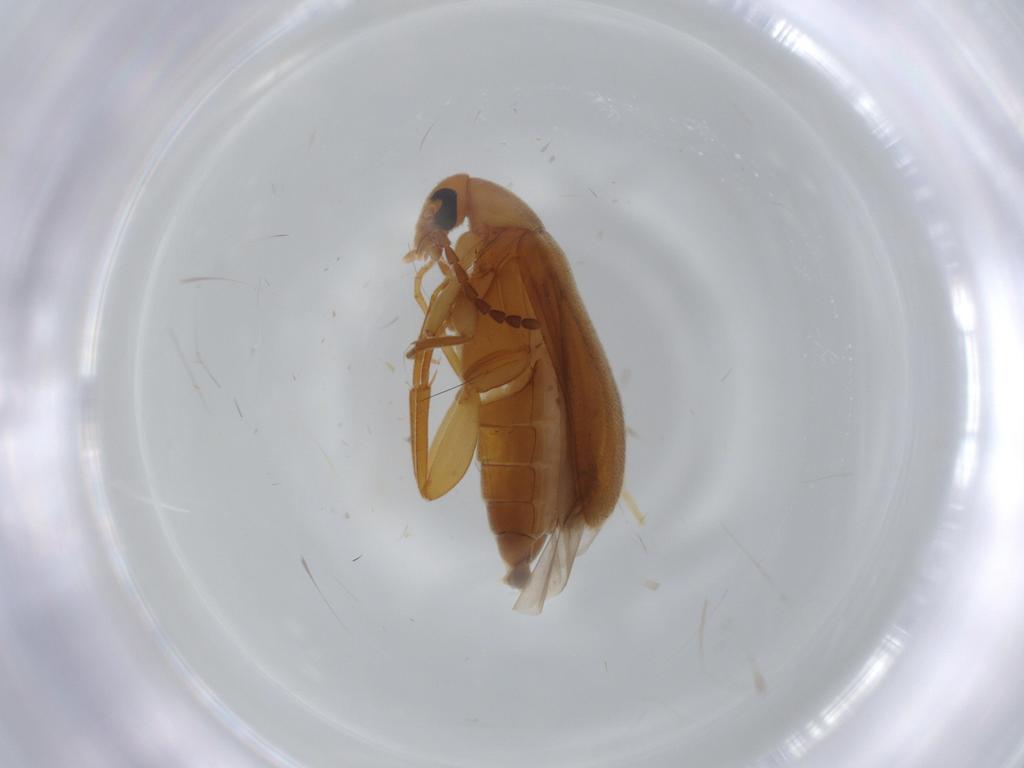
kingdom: Animalia
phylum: Arthropoda
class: Insecta
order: Coleoptera
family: Scraptiidae
